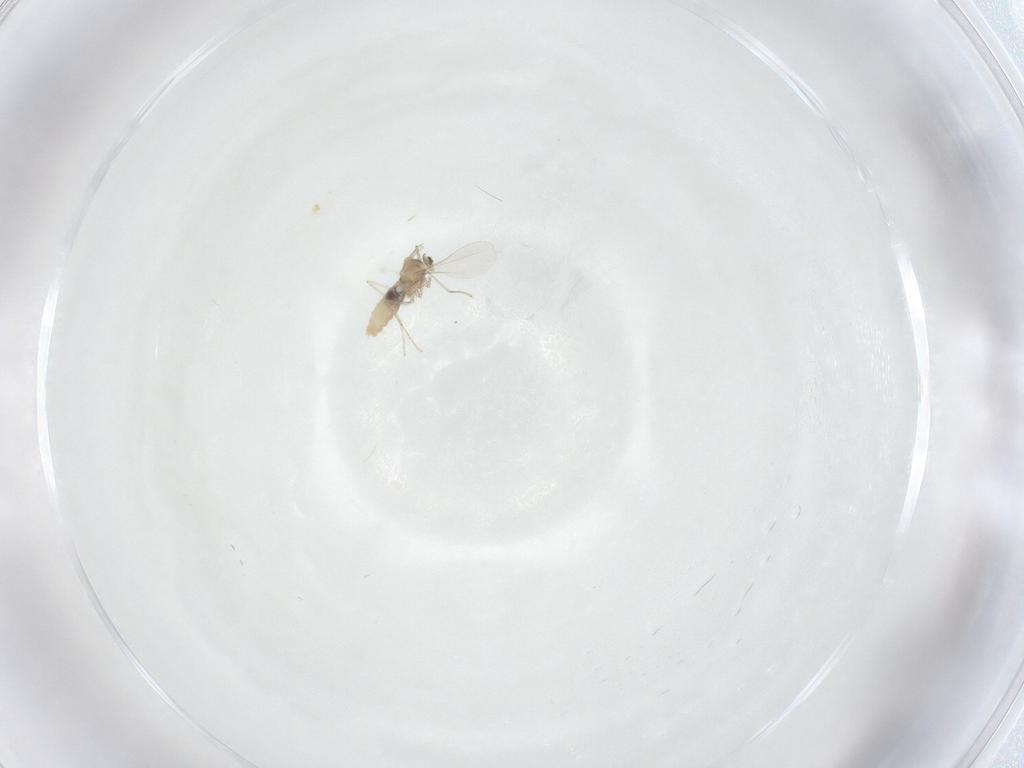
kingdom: Animalia
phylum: Arthropoda
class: Insecta
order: Diptera
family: Cecidomyiidae
